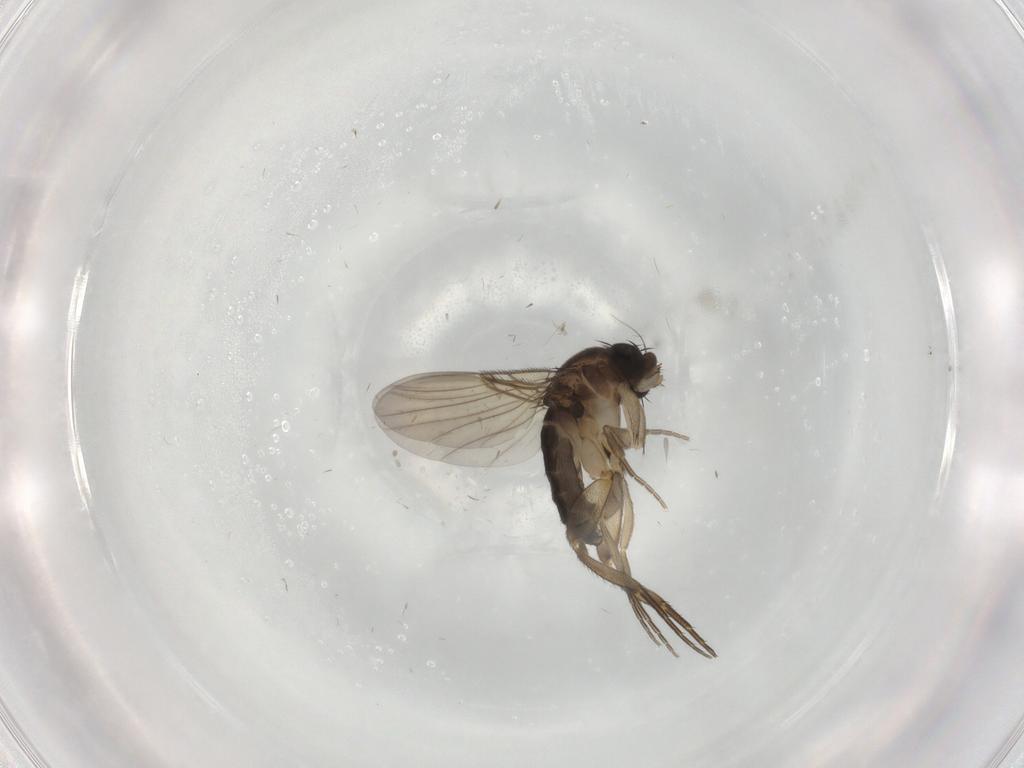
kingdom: Animalia
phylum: Arthropoda
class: Insecta
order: Diptera
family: Phoridae
